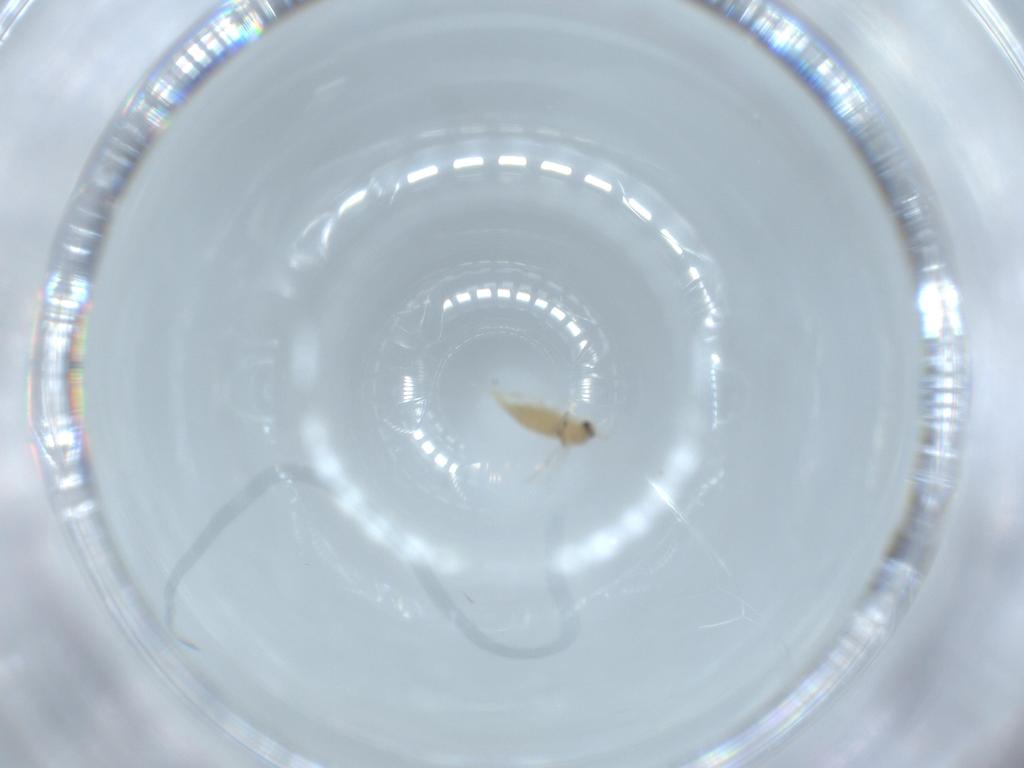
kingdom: Animalia
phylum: Arthropoda
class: Insecta
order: Diptera
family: Cecidomyiidae
